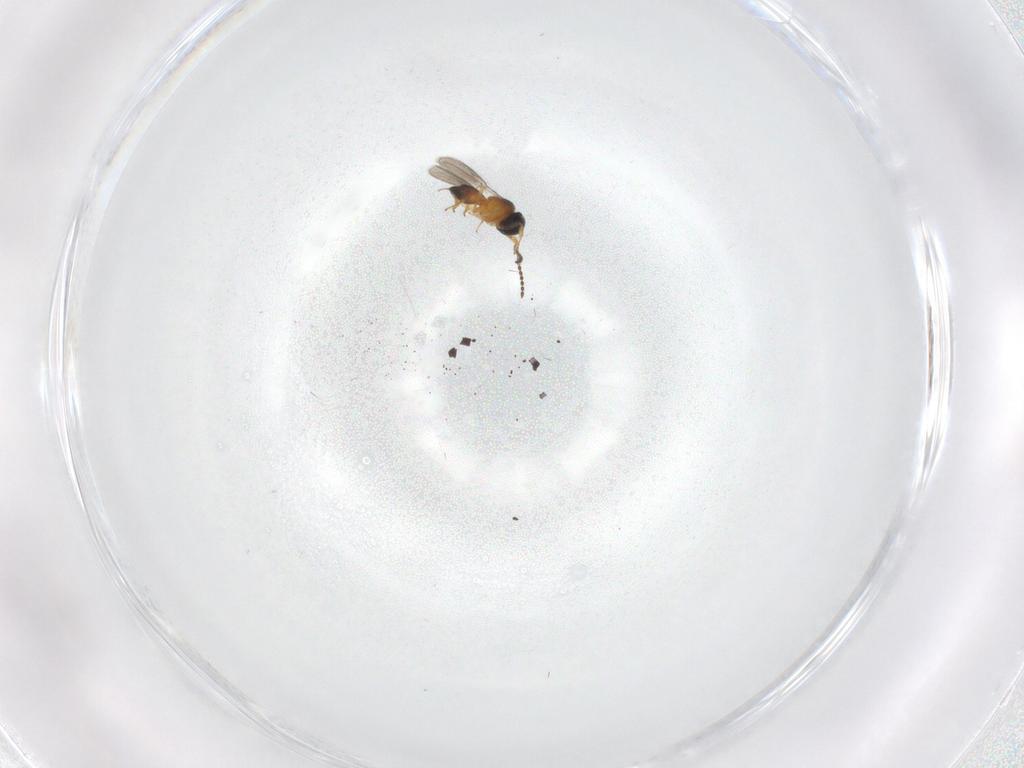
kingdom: Animalia
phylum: Arthropoda
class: Insecta
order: Hymenoptera
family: Scelionidae
